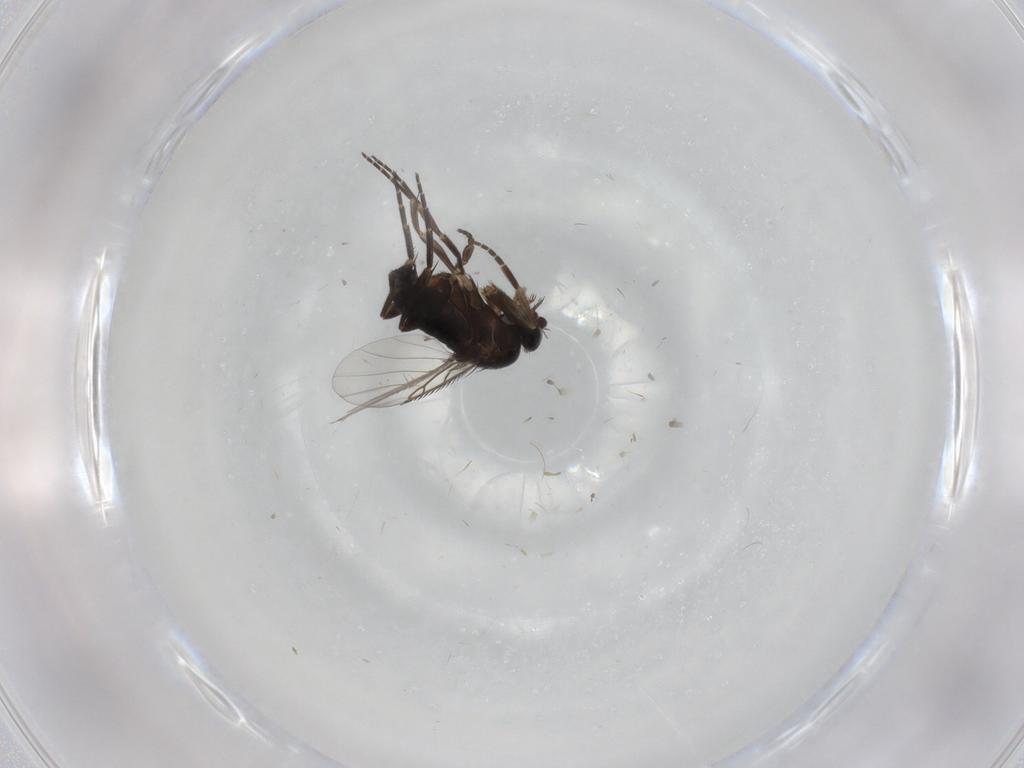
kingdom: Animalia
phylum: Arthropoda
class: Insecta
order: Diptera
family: Phoridae
